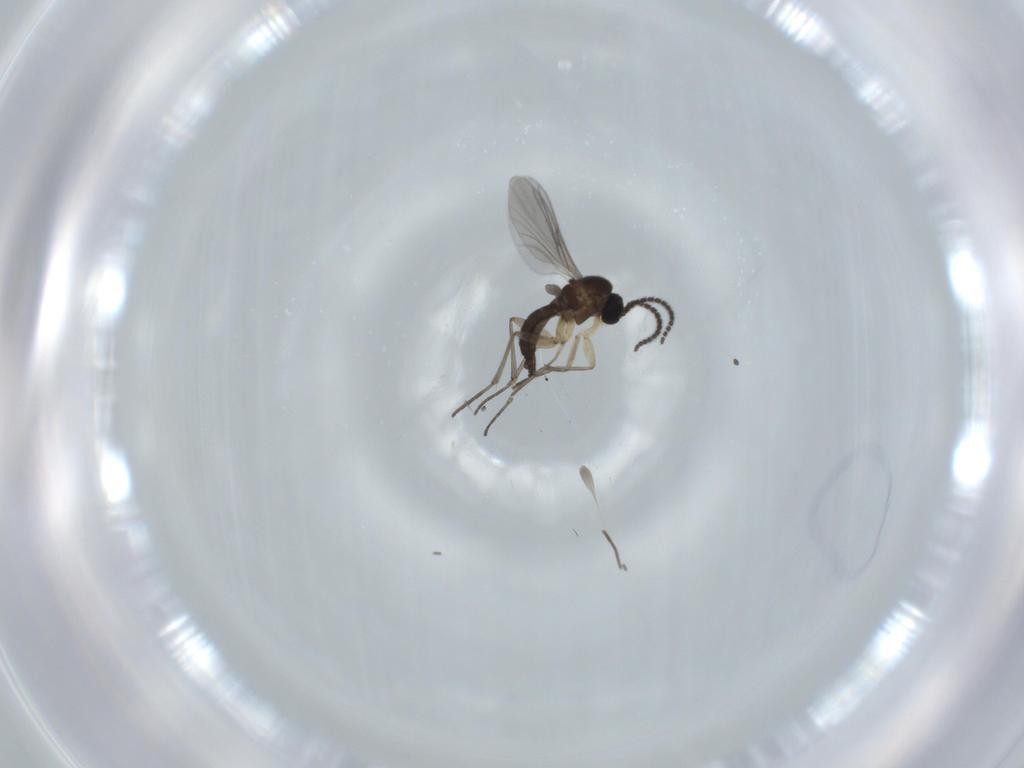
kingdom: Animalia
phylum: Arthropoda
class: Insecta
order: Diptera
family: Sciaridae
